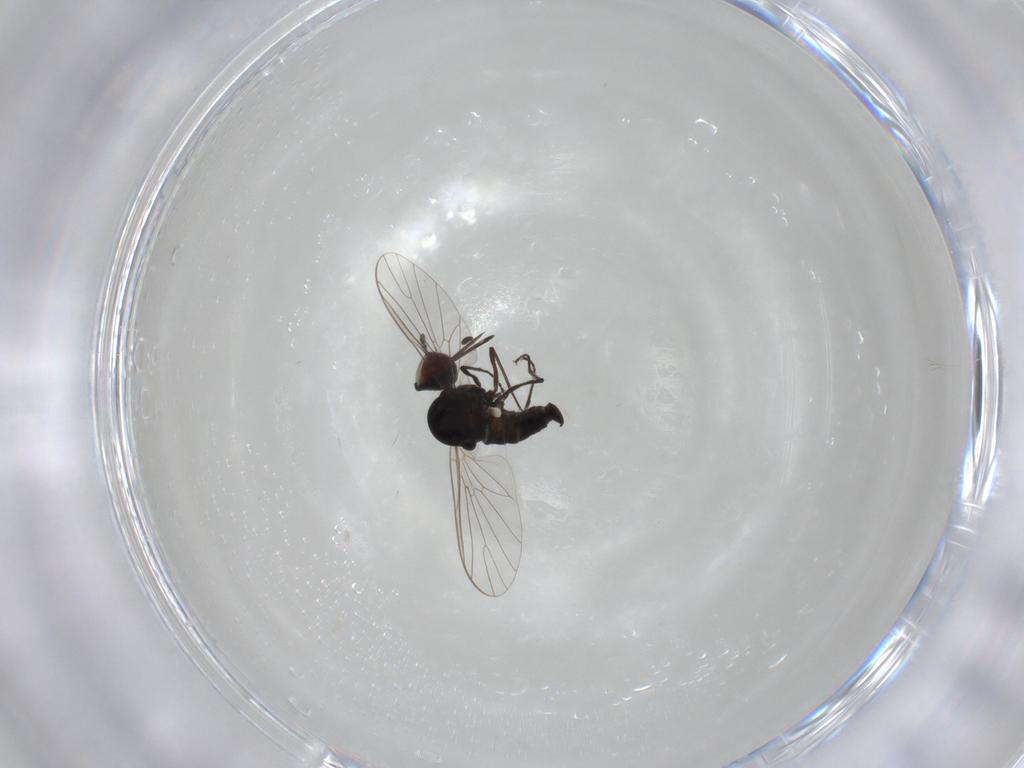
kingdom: Animalia
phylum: Arthropoda
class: Insecta
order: Diptera
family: Bombyliidae
